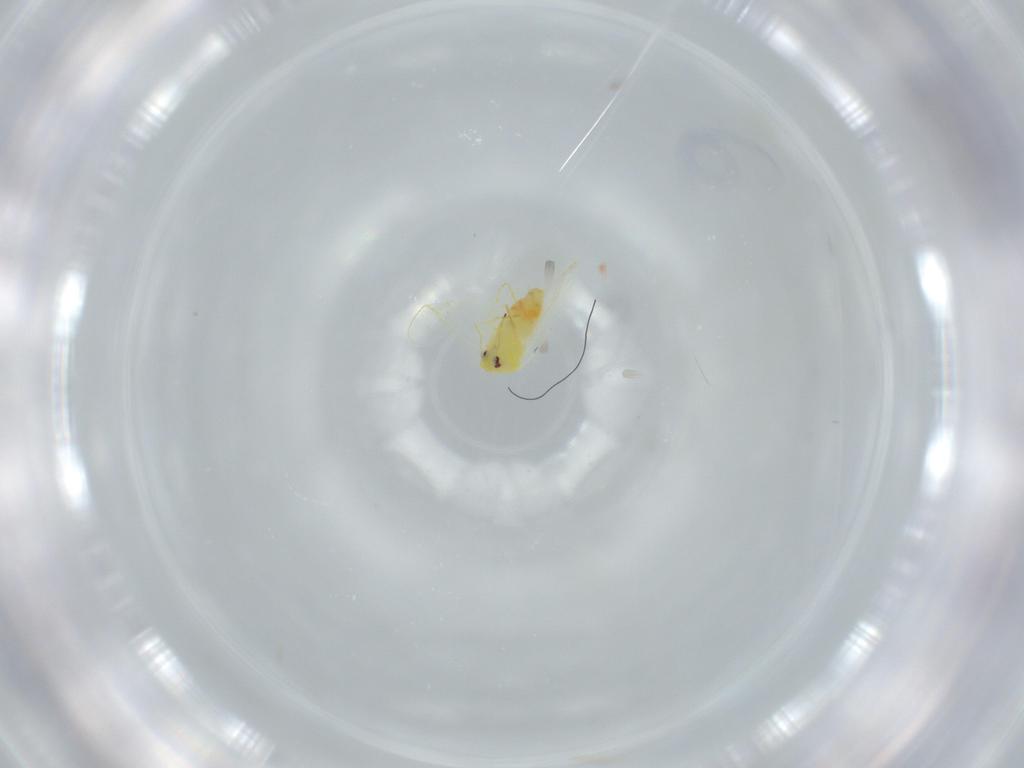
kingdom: Animalia
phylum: Arthropoda
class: Insecta
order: Hemiptera
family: Aleyrodidae
